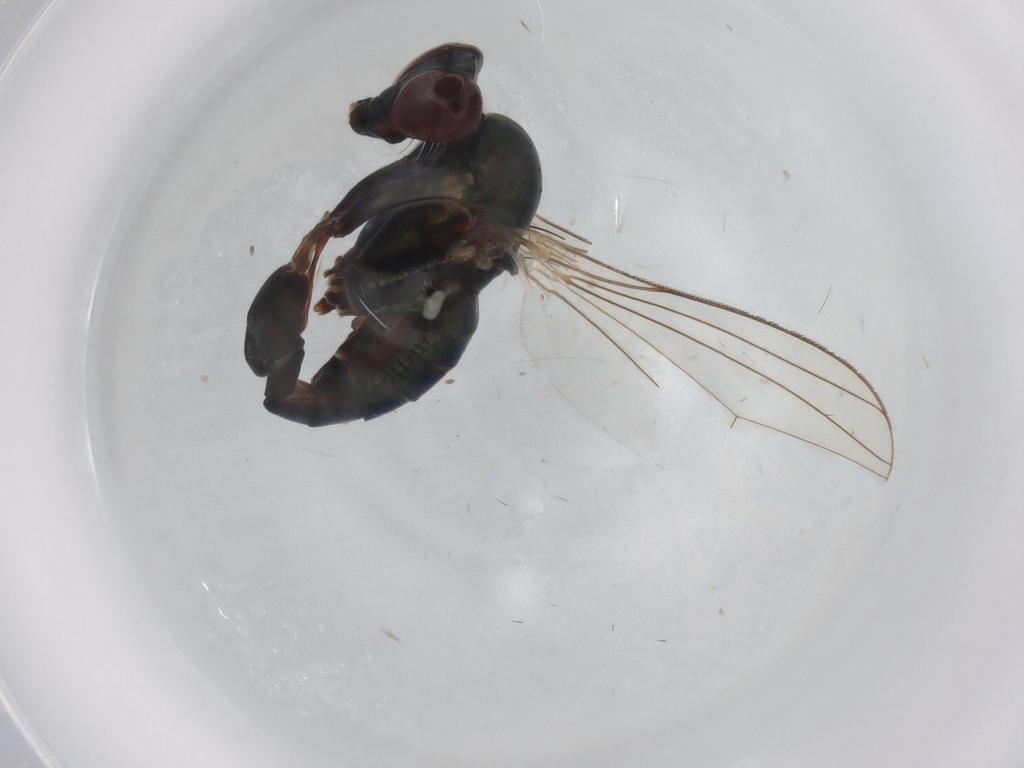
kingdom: Animalia
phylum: Arthropoda
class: Insecta
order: Diptera
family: Dolichopodidae
